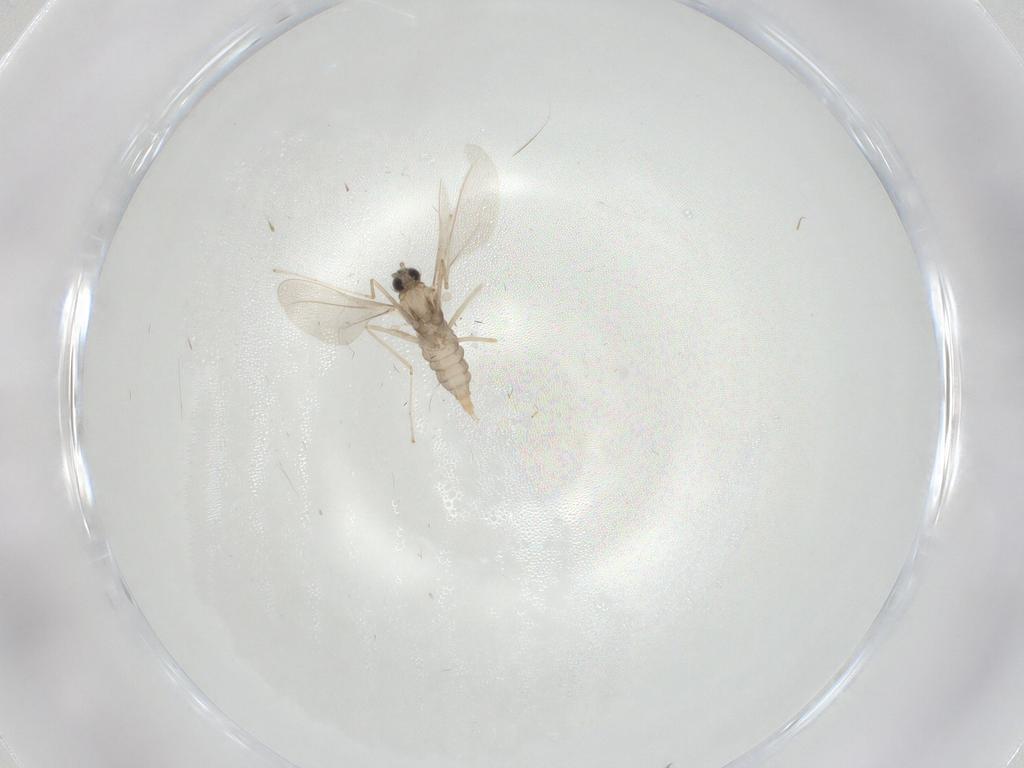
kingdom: Animalia
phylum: Arthropoda
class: Insecta
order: Diptera
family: Cecidomyiidae
